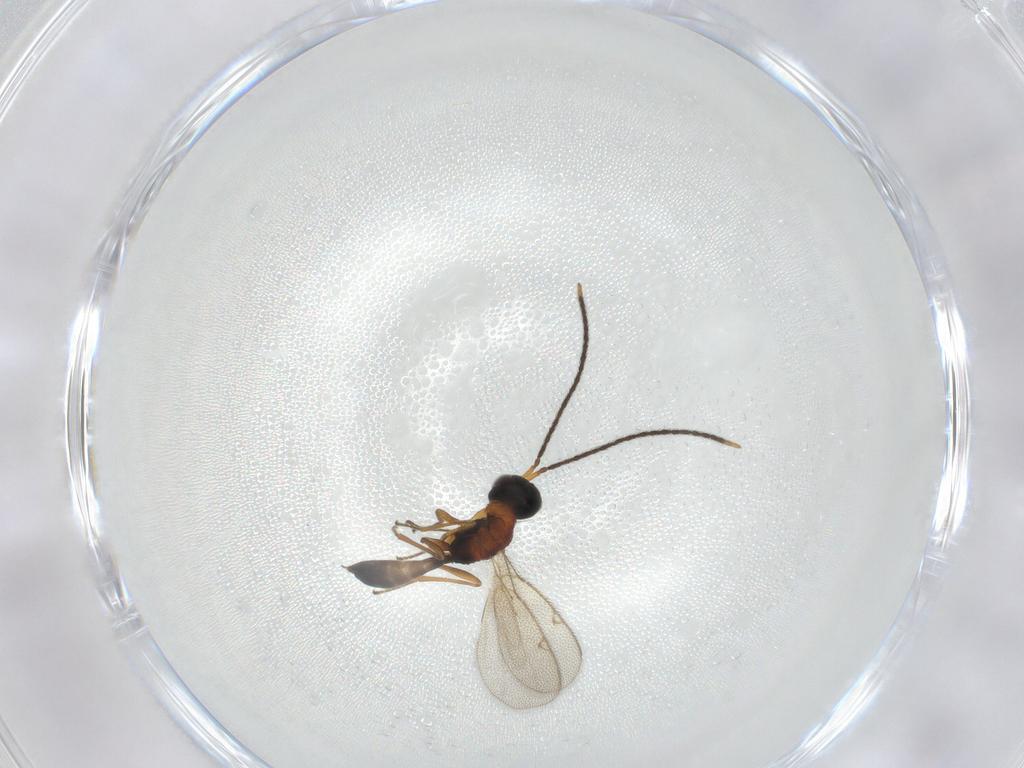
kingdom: Animalia
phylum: Arthropoda
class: Insecta
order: Hymenoptera
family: Pteromalidae
